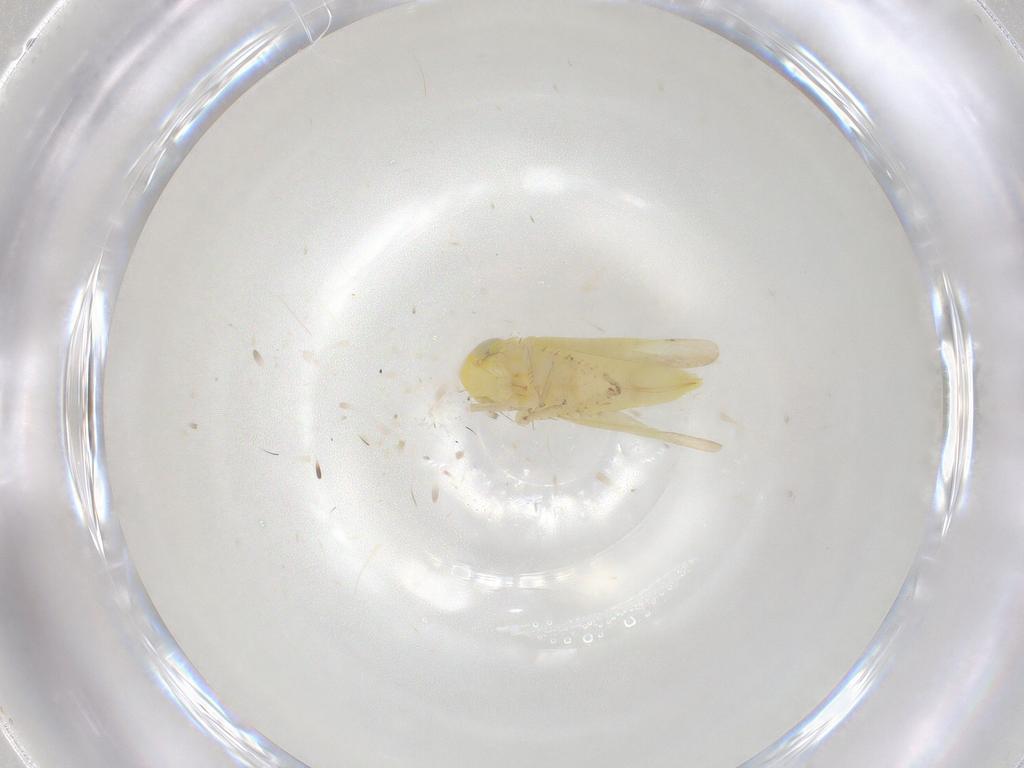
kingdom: Animalia
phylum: Arthropoda
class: Insecta
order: Hemiptera
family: Cicadellidae
